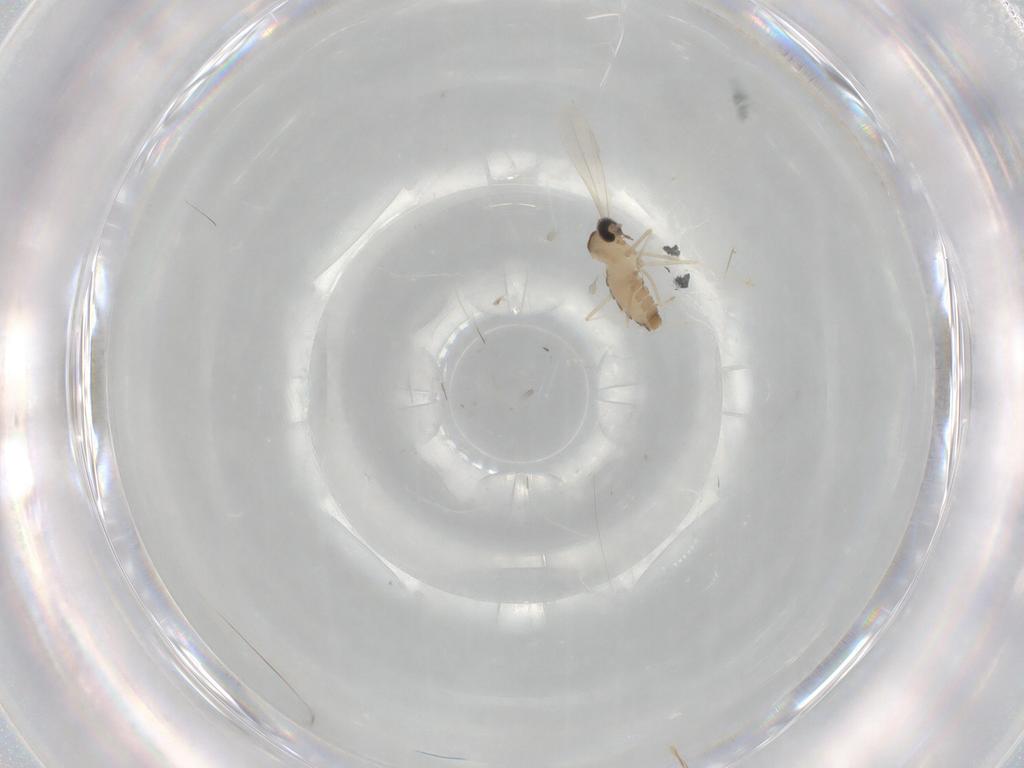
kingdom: Animalia
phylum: Arthropoda
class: Insecta
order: Diptera
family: Cecidomyiidae
